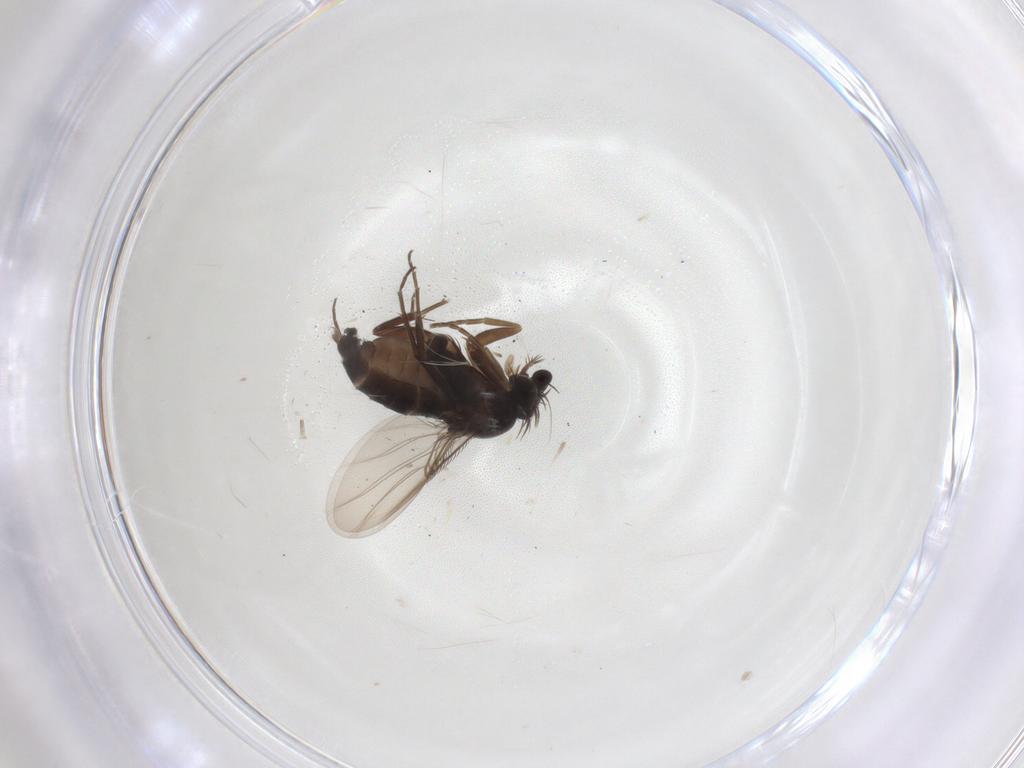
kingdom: Animalia
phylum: Arthropoda
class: Insecta
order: Diptera
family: Phoridae
